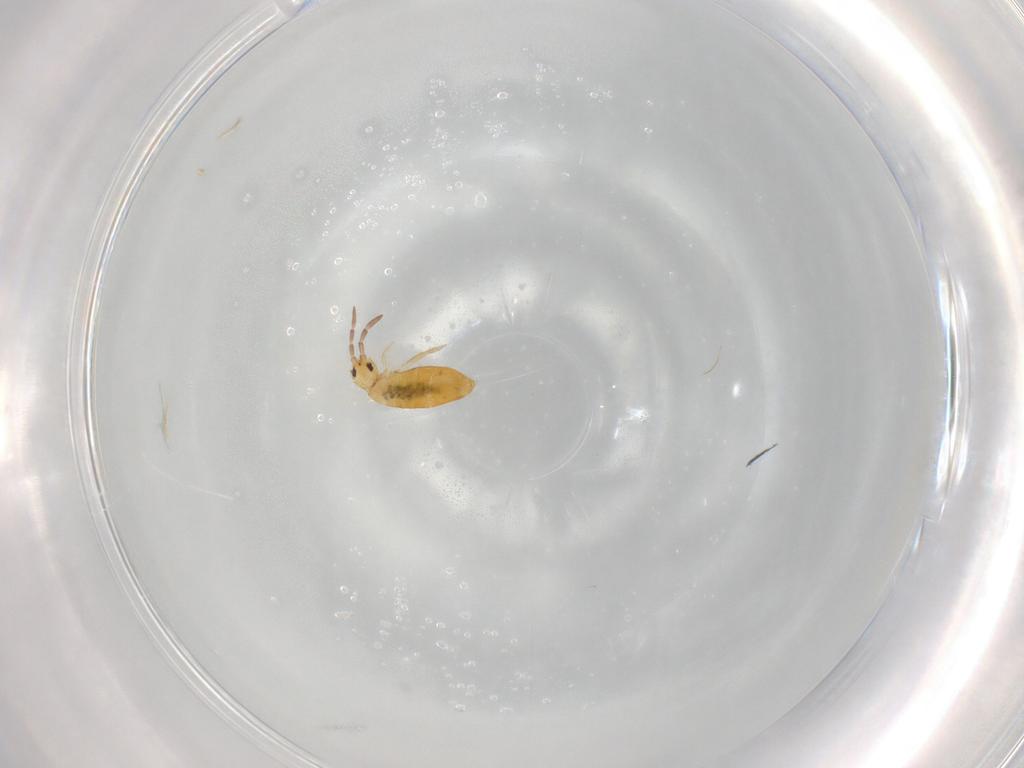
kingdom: Animalia
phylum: Arthropoda
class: Collembola
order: Entomobryomorpha
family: Entomobryidae
